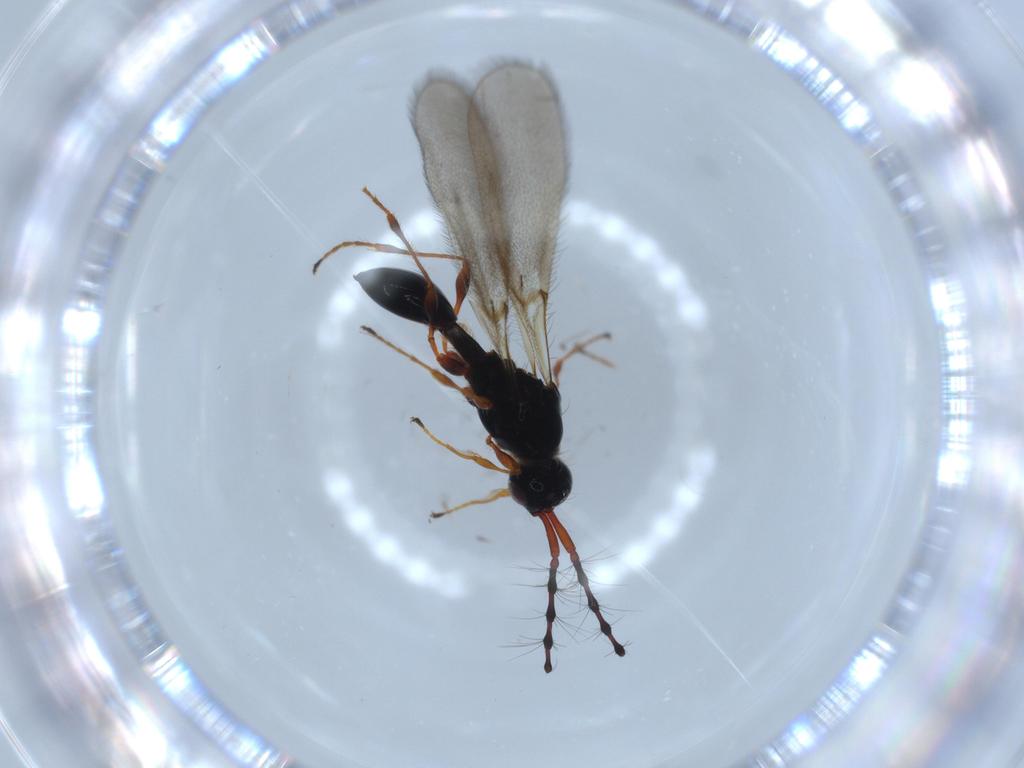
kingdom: Animalia
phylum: Arthropoda
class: Insecta
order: Hymenoptera
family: Diapriidae
